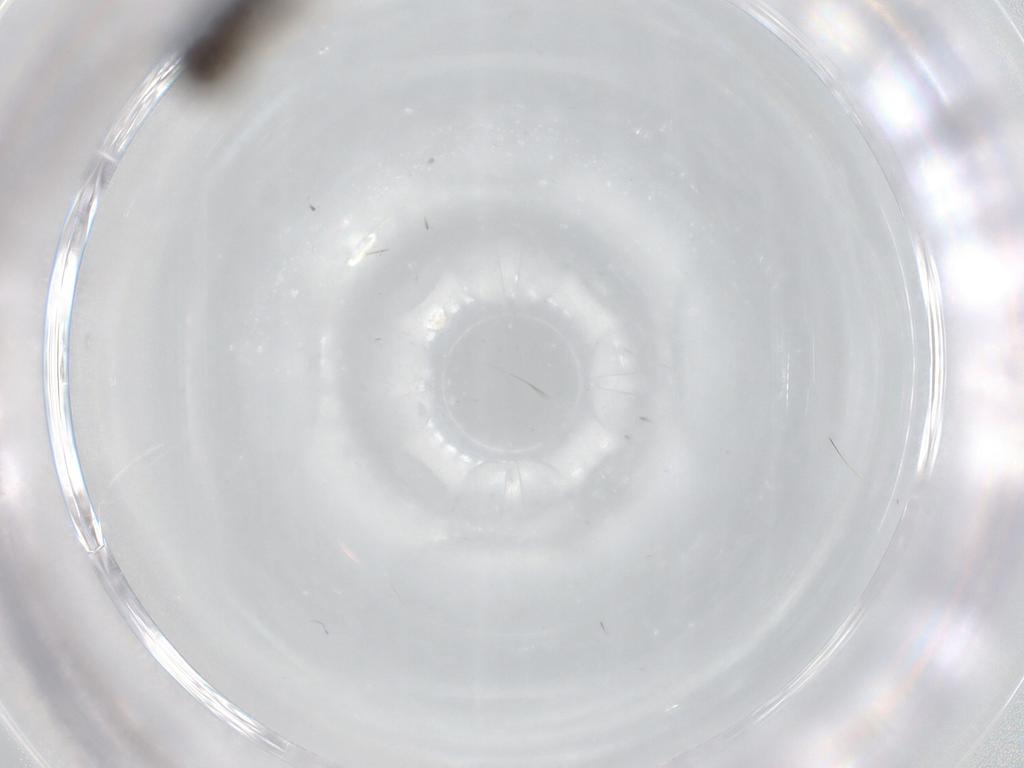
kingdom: Animalia
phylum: Arthropoda
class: Insecta
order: Diptera
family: Sciaridae
